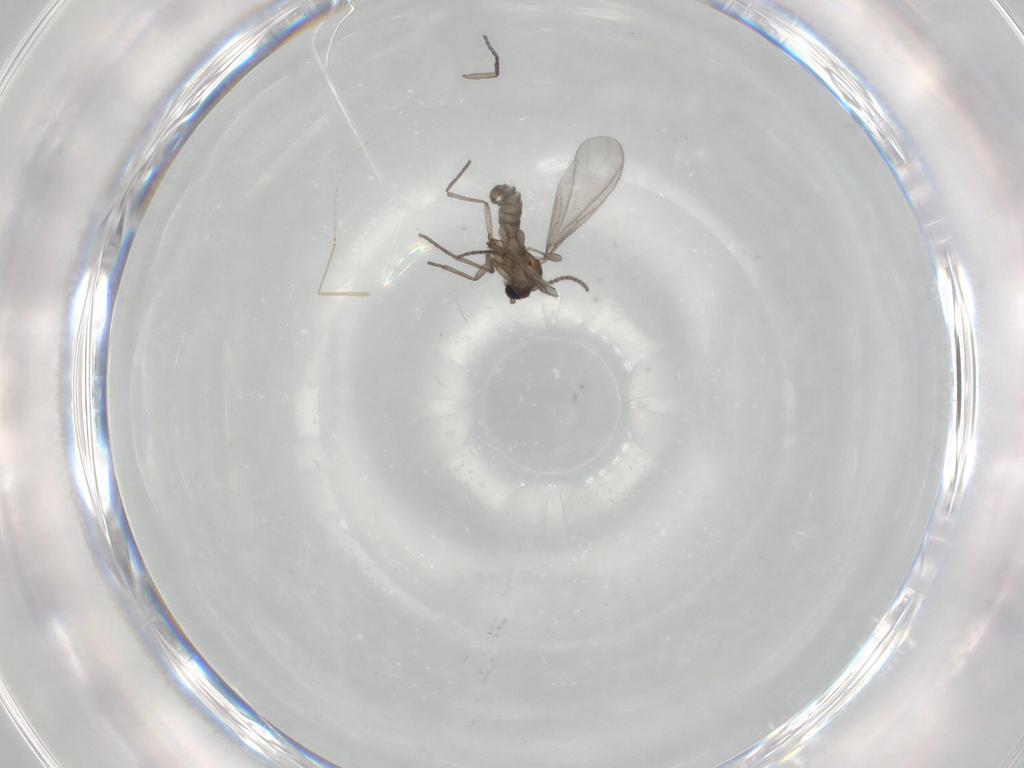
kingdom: Animalia
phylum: Arthropoda
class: Insecta
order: Diptera
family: Sciaridae
